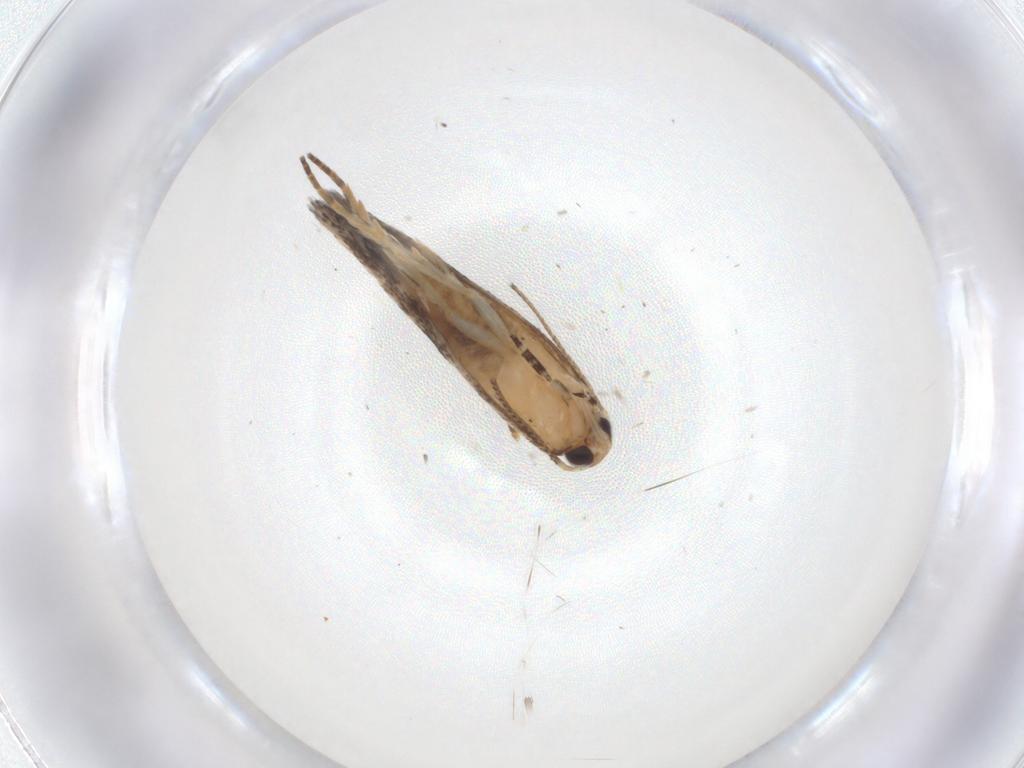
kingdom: Animalia
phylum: Arthropoda
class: Insecta
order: Lepidoptera
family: Gelechiidae
